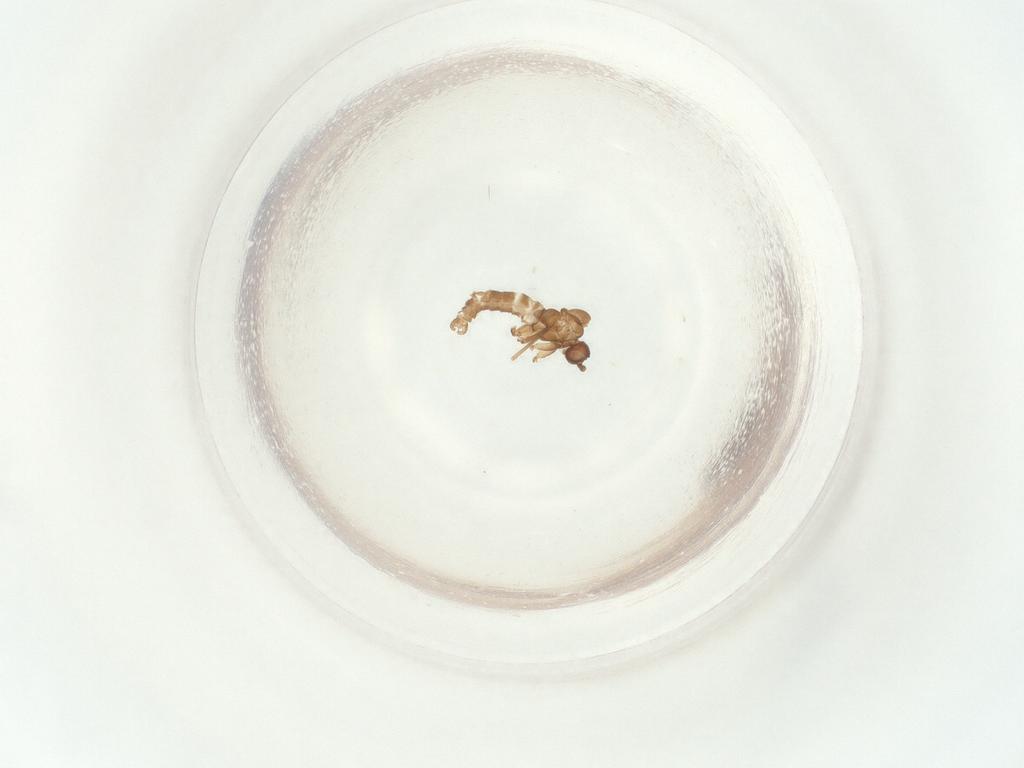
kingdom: Animalia
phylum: Arthropoda
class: Insecta
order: Diptera
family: Sciaridae
